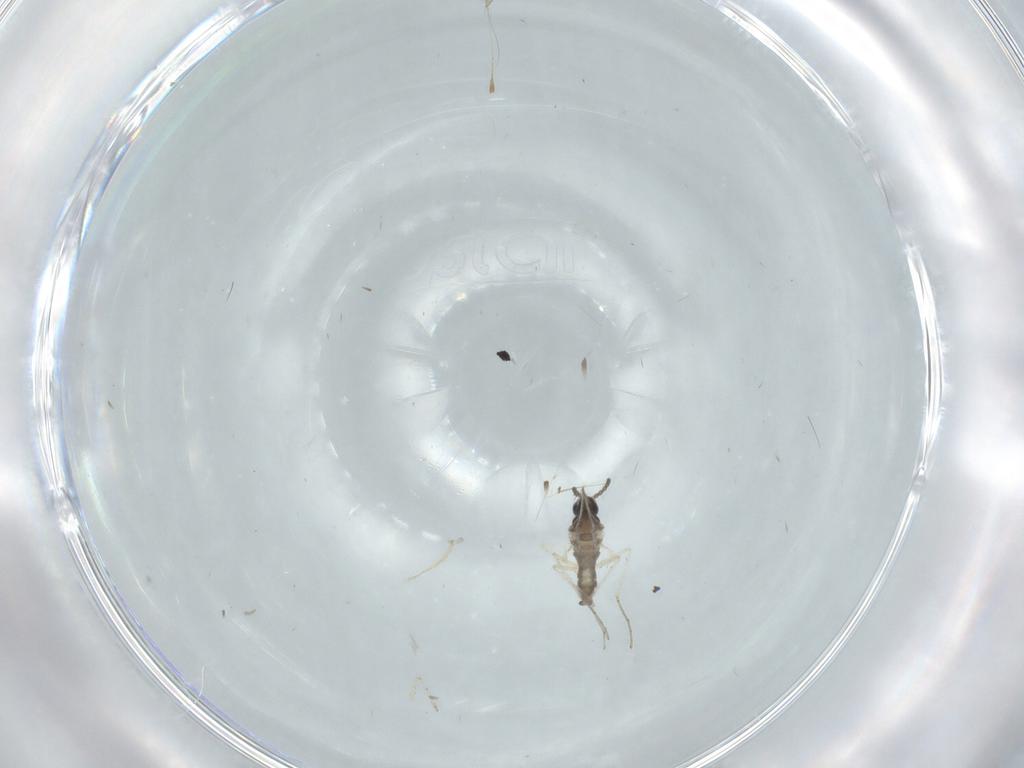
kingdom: Animalia
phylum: Arthropoda
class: Insecta
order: Diptera
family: Cecidomyiidae
